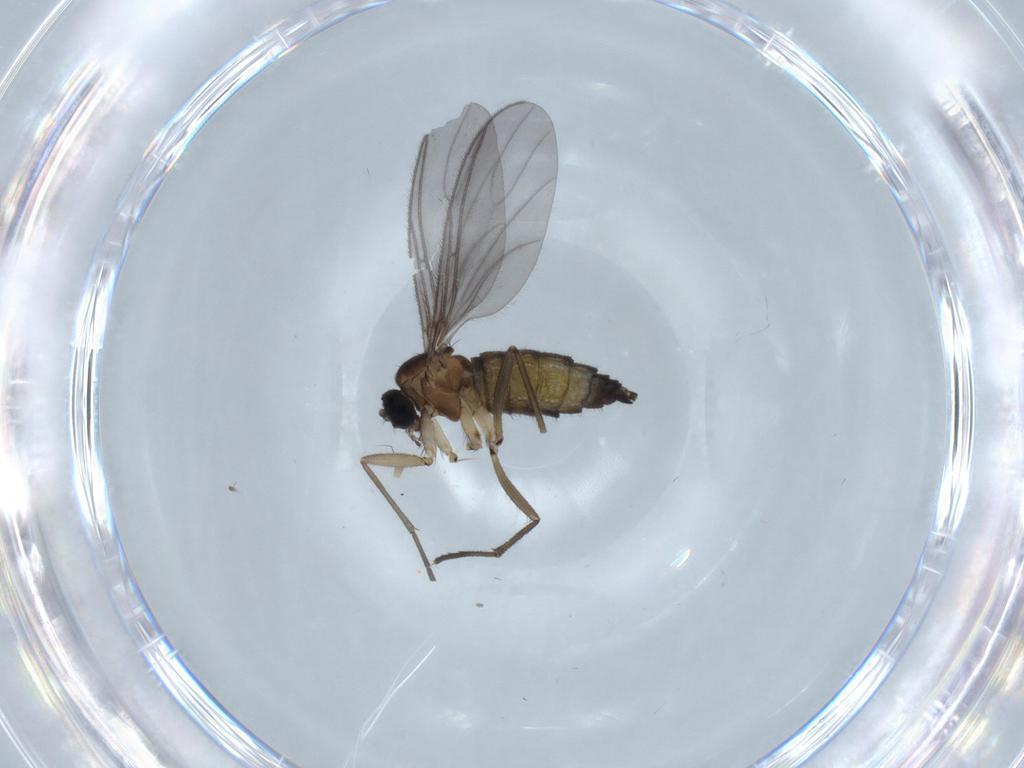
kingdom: Animalia
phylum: Arthropoda
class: Insecta
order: Diptera
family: Sciaridae
